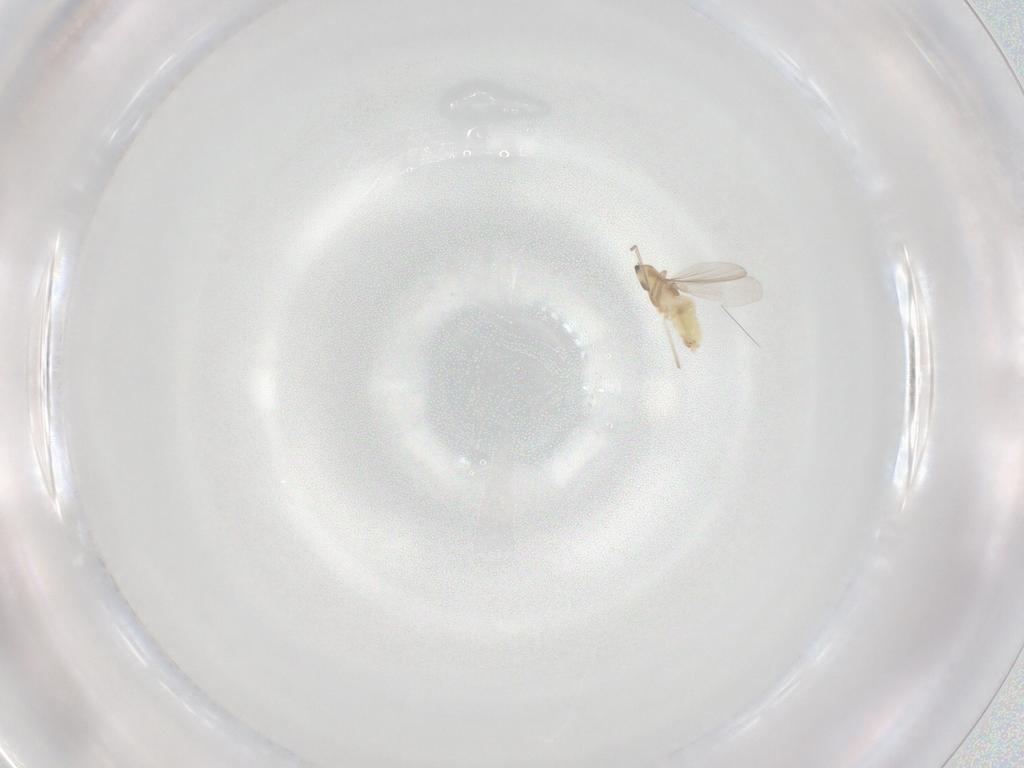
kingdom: Animalia
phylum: Arthropoda
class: Insecta
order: Diptera
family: Chironomidae
